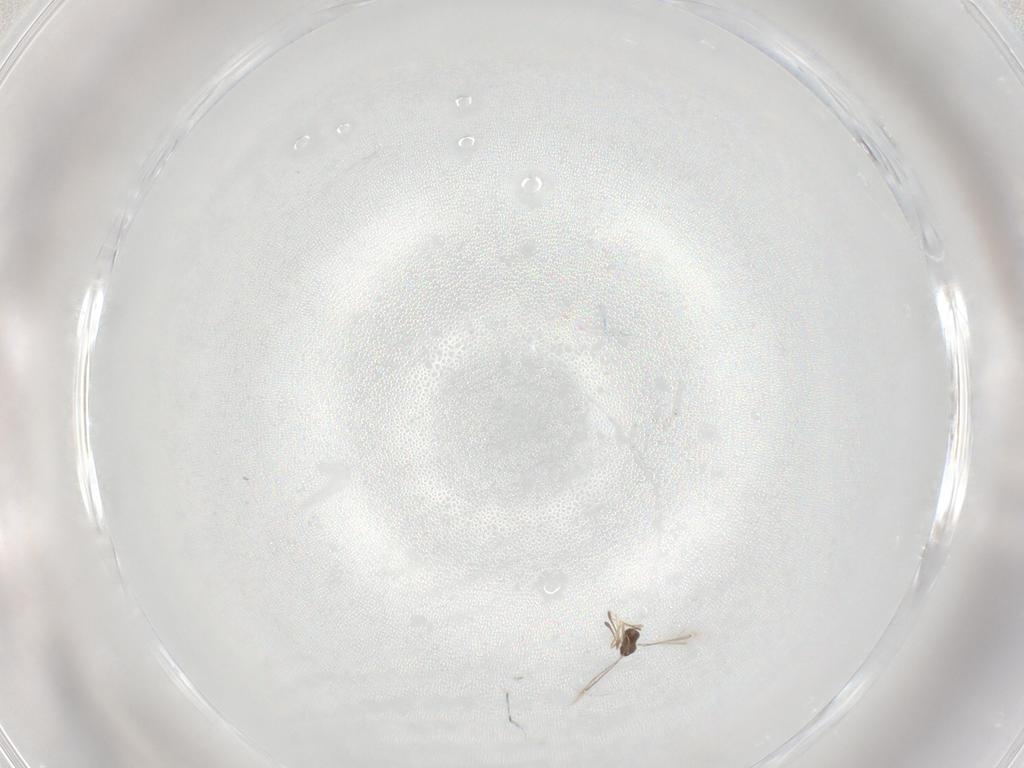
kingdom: Animalia
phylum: Arthropoda
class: Insecta
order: Hymenoptera
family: Mymaridae
